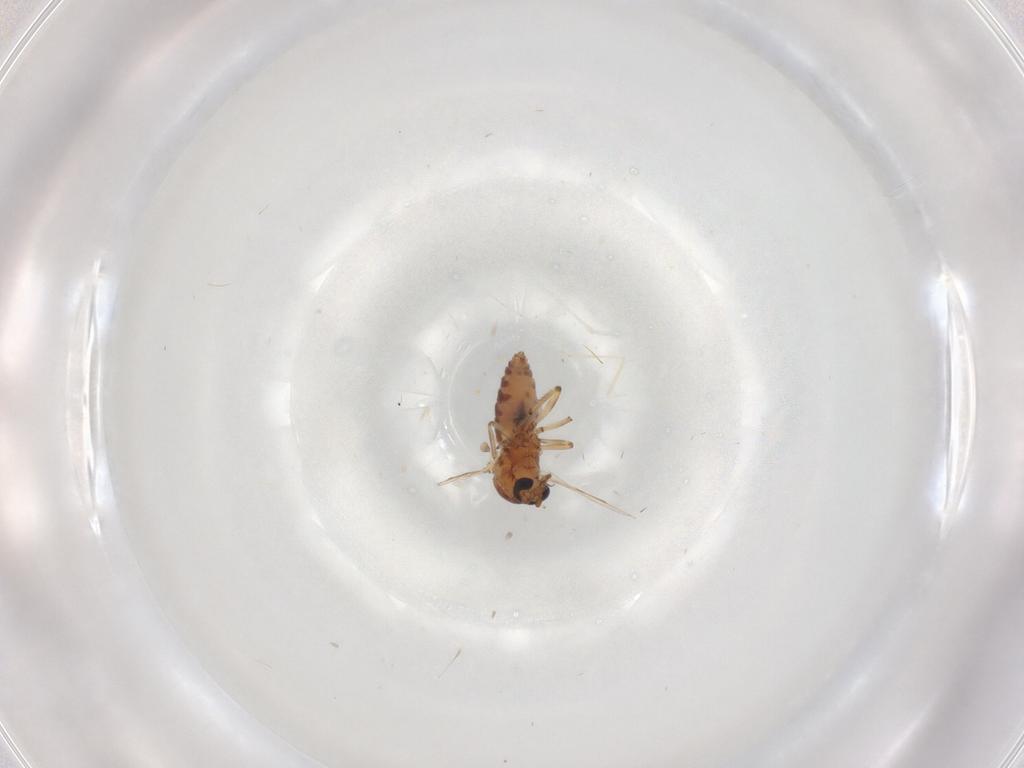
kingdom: Animalia
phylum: Arthropoda
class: Insecta
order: Diptera
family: Ceratopogonidae
